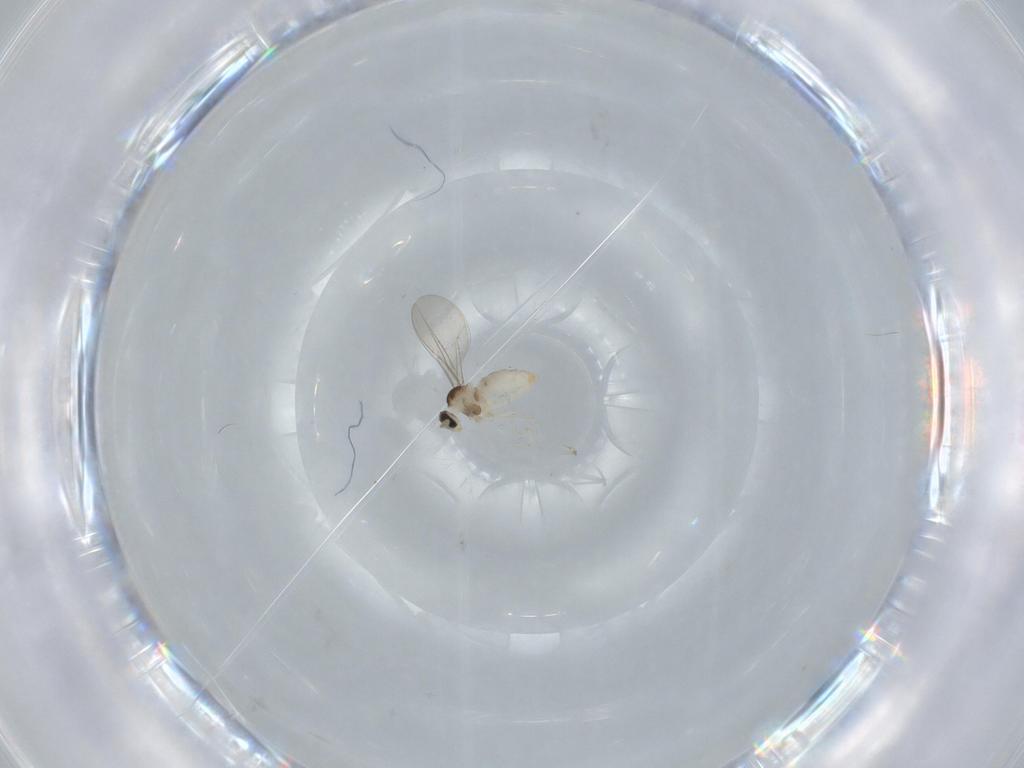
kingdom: Animalia
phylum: Arthropoda
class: Insecta
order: Diptera
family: Cecidomyiidae
